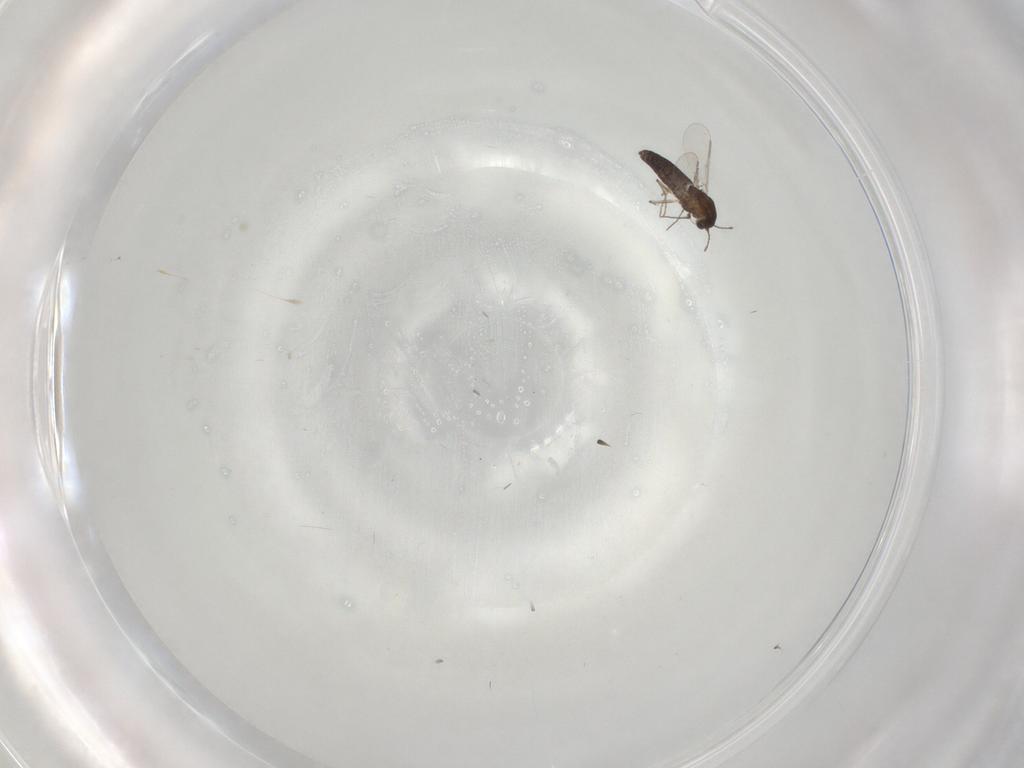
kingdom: Animalia
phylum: Arthropoda
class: Insecta
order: Diptera
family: Chironomidae
